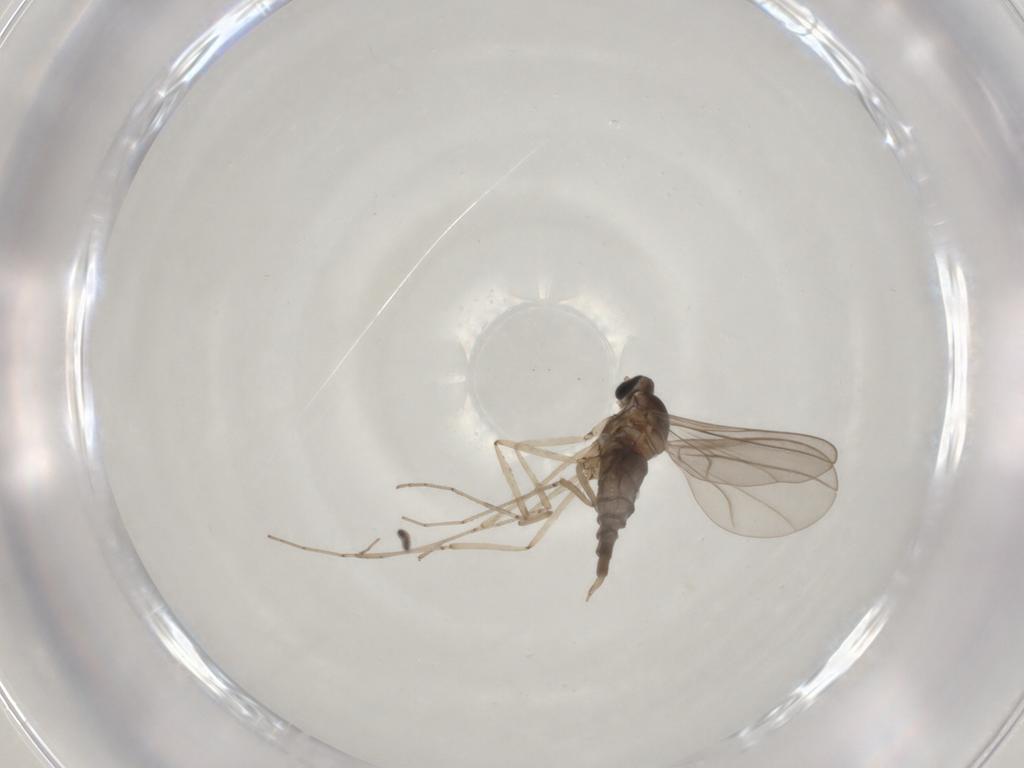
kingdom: Animalia
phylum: Arthropoda
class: Insecta
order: Diptera
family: Sciaridae
